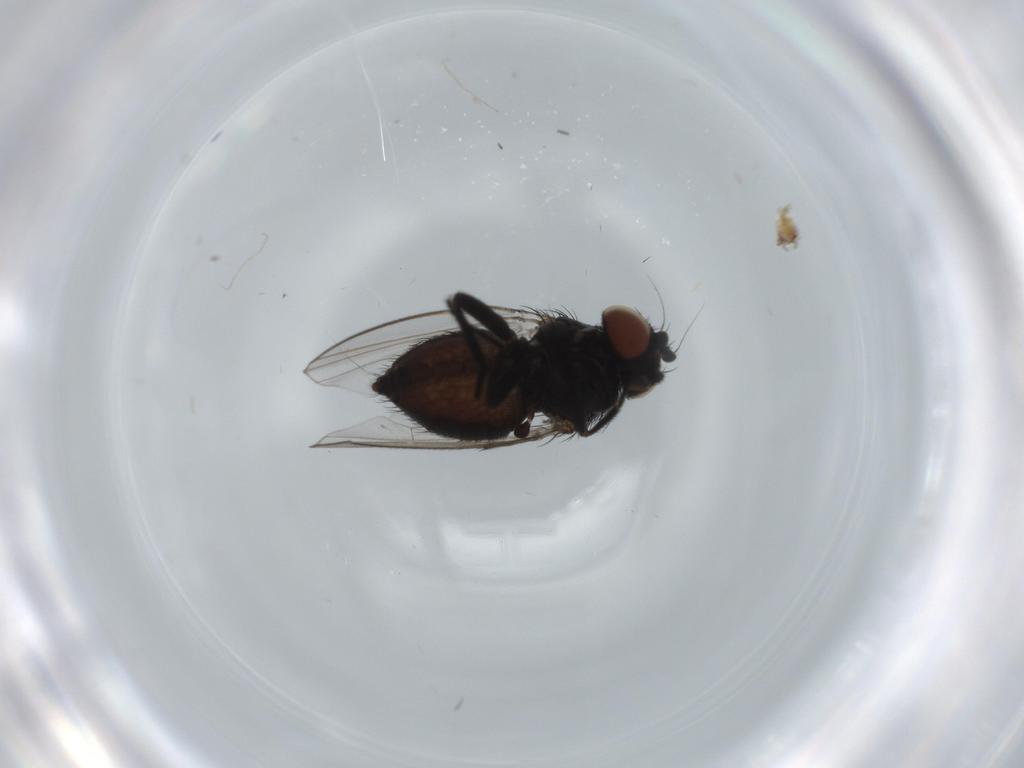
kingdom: Animalia
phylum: Arthropoda
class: Insecta
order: Diptera
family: Milichiidae
